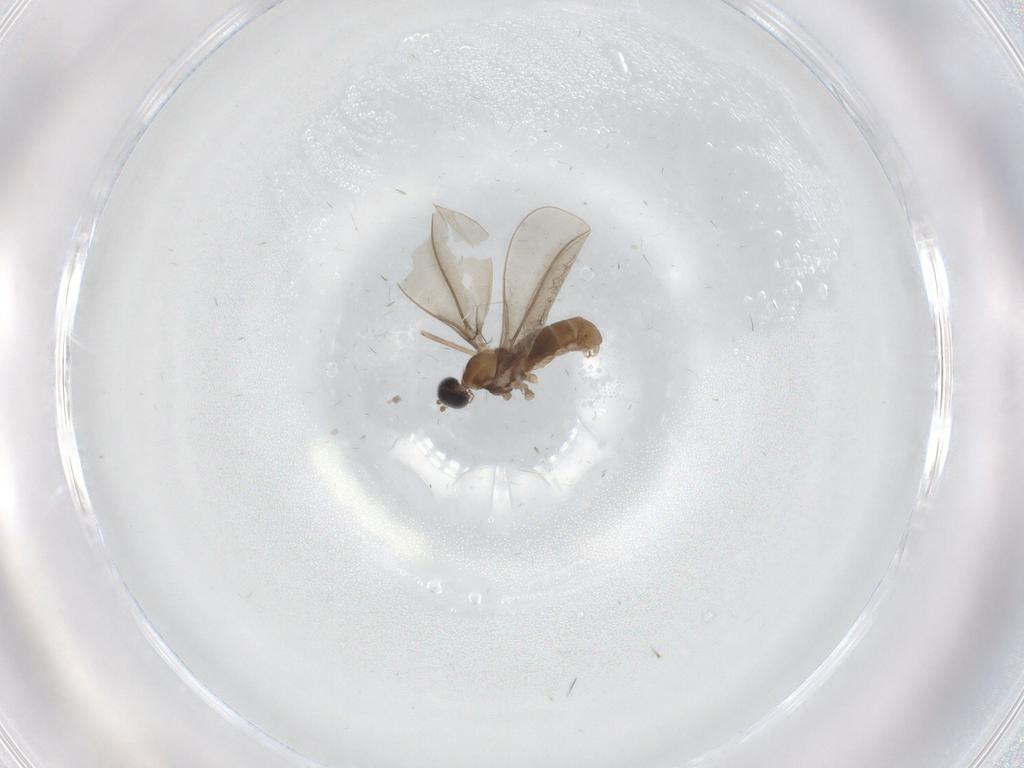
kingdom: Animalia
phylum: Arthropoda
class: Insecta
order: Diptera
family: Cecidomyiidae
